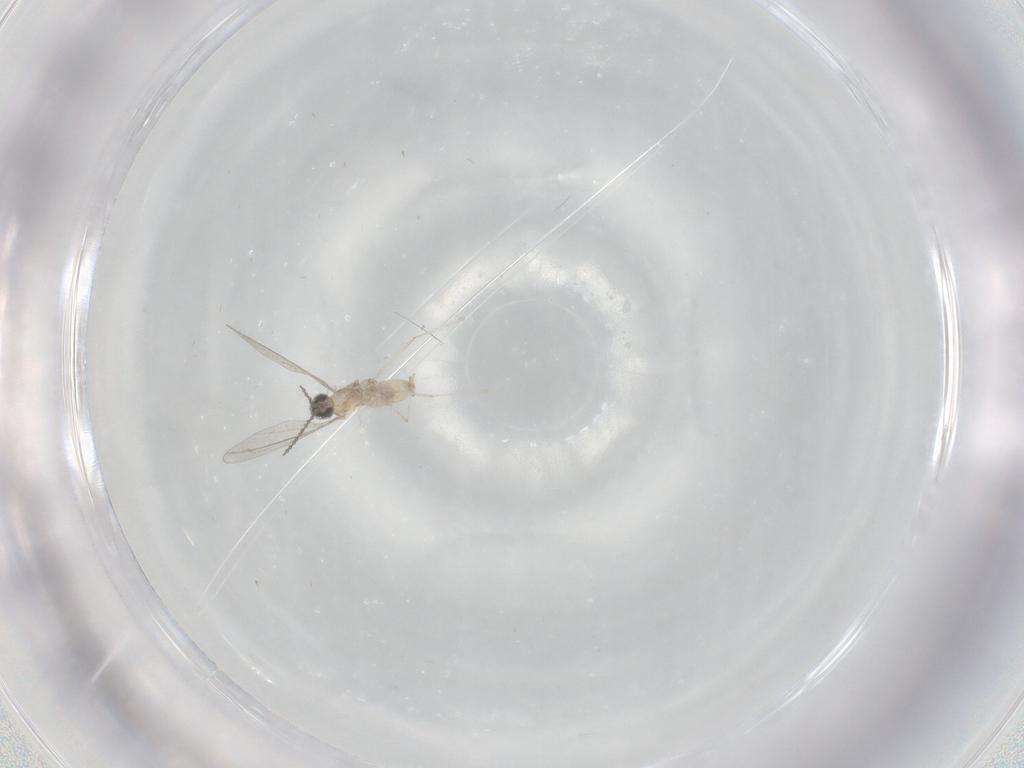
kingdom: Animalia
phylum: Arthropoda
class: Insecta
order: Diptera
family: Cecidomyiidae
